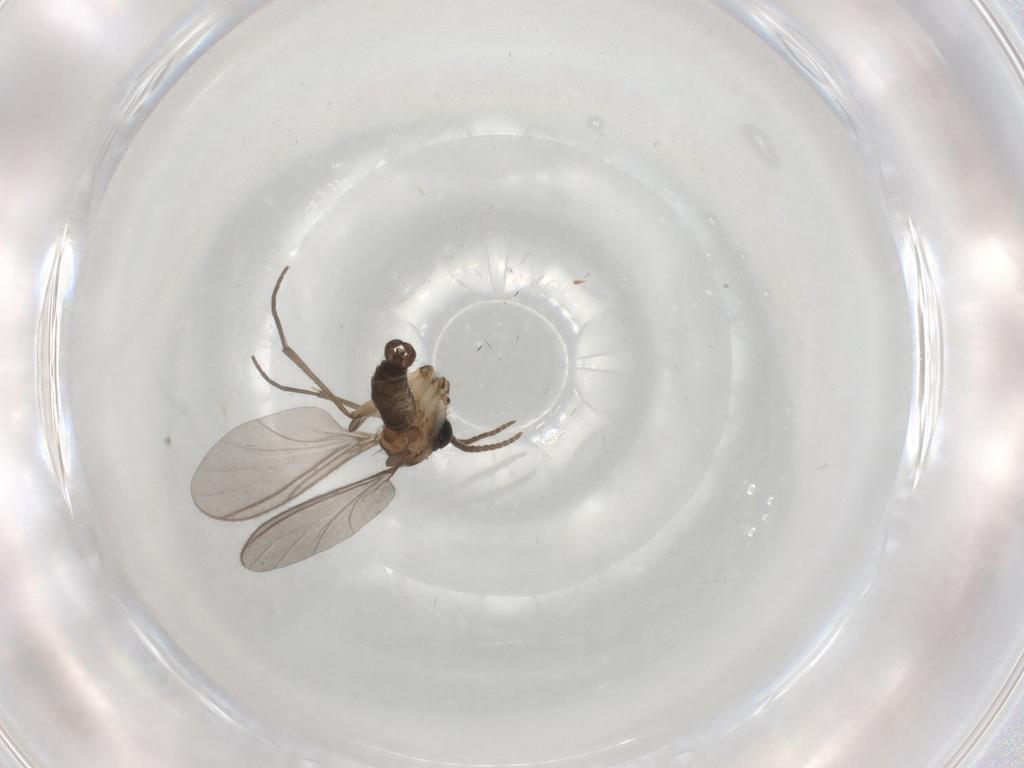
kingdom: Animalia
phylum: Arthropoda
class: Insecta
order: Diptera
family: Psychodidae
